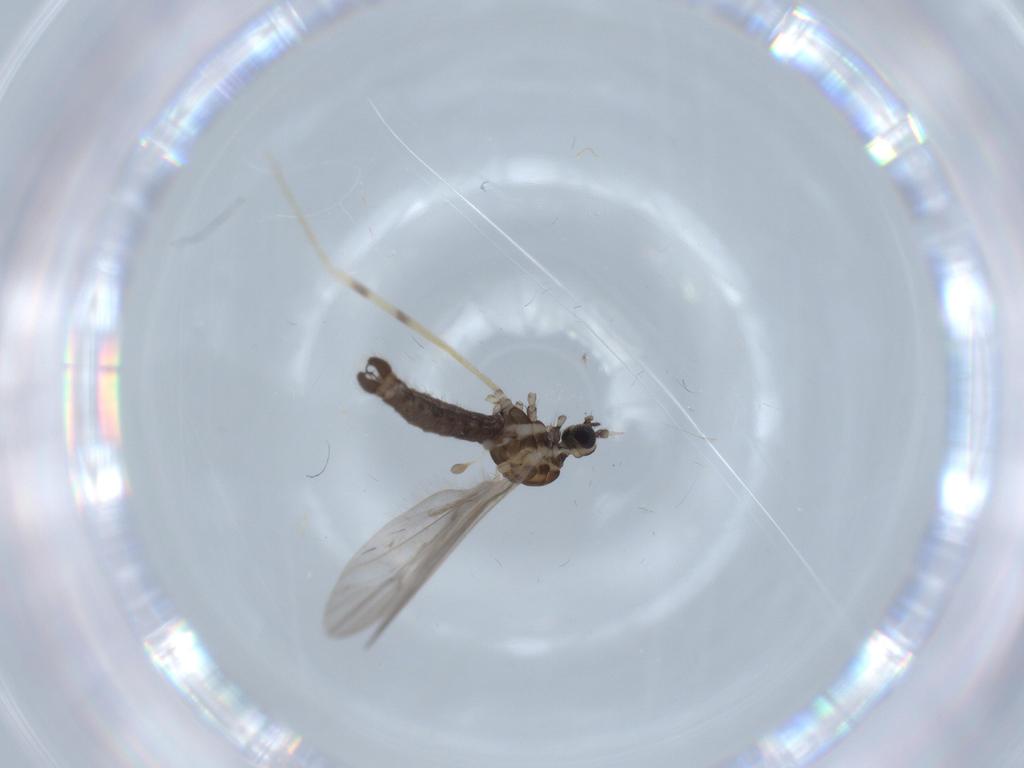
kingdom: Animalia
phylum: Arthropoda
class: Insecta
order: Diptera
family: Limoniidae
